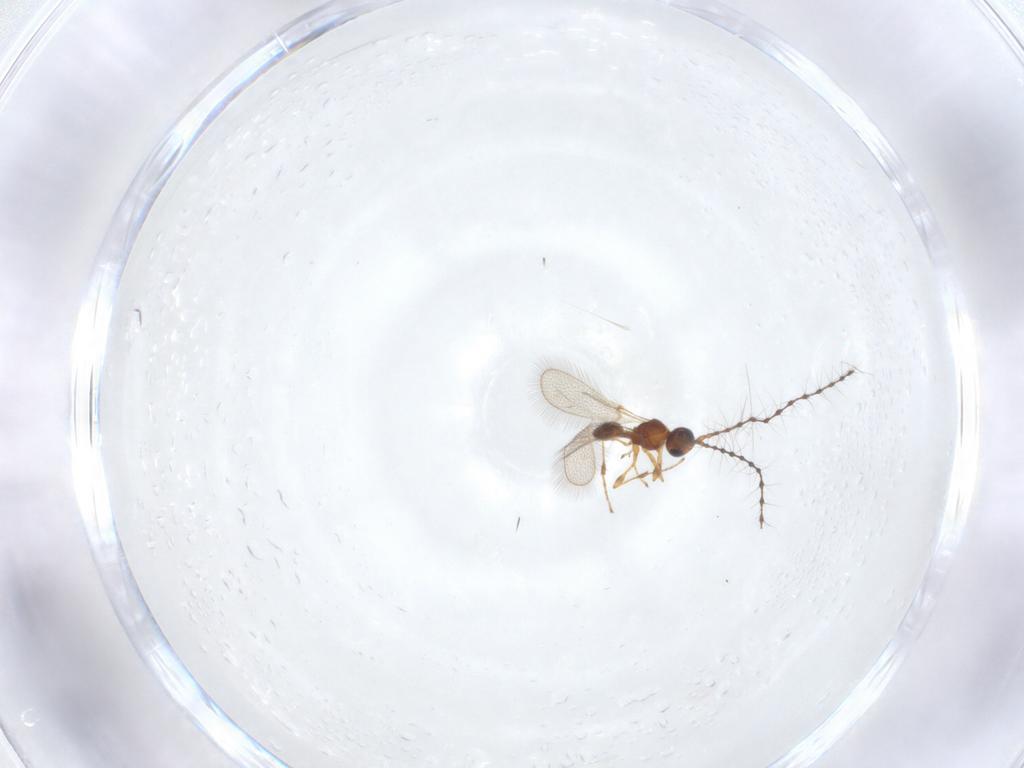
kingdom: Animalia
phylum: Arthropoda
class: Insecta
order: Hymenoptera
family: Diapriidae
